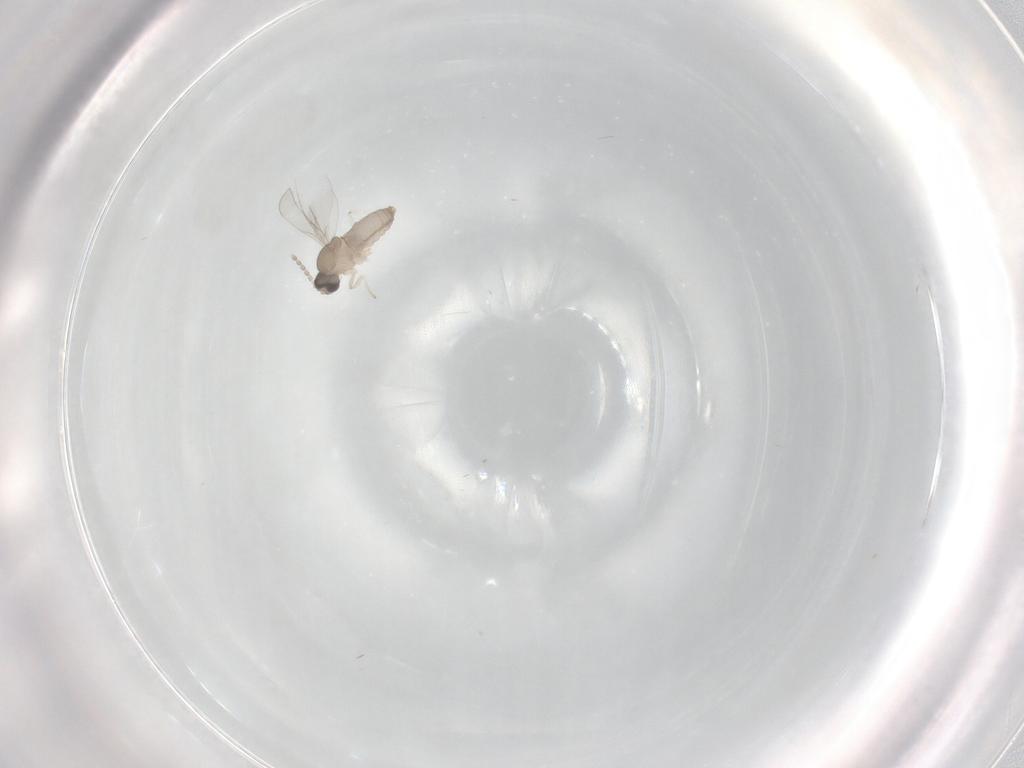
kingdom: Animalia
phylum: Arthropoda
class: Insecta
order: Diptera
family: Cecidomyiidae
